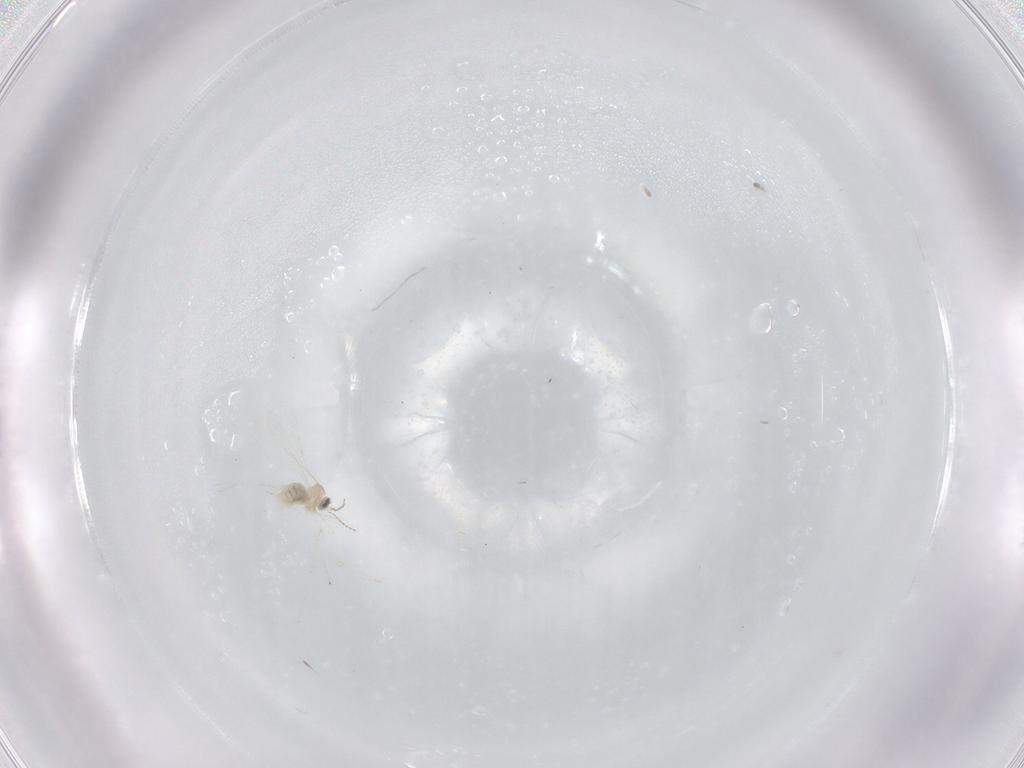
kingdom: Animalia
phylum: Arthropoda
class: Insecta
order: Diptera
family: Cecidomyiidae
